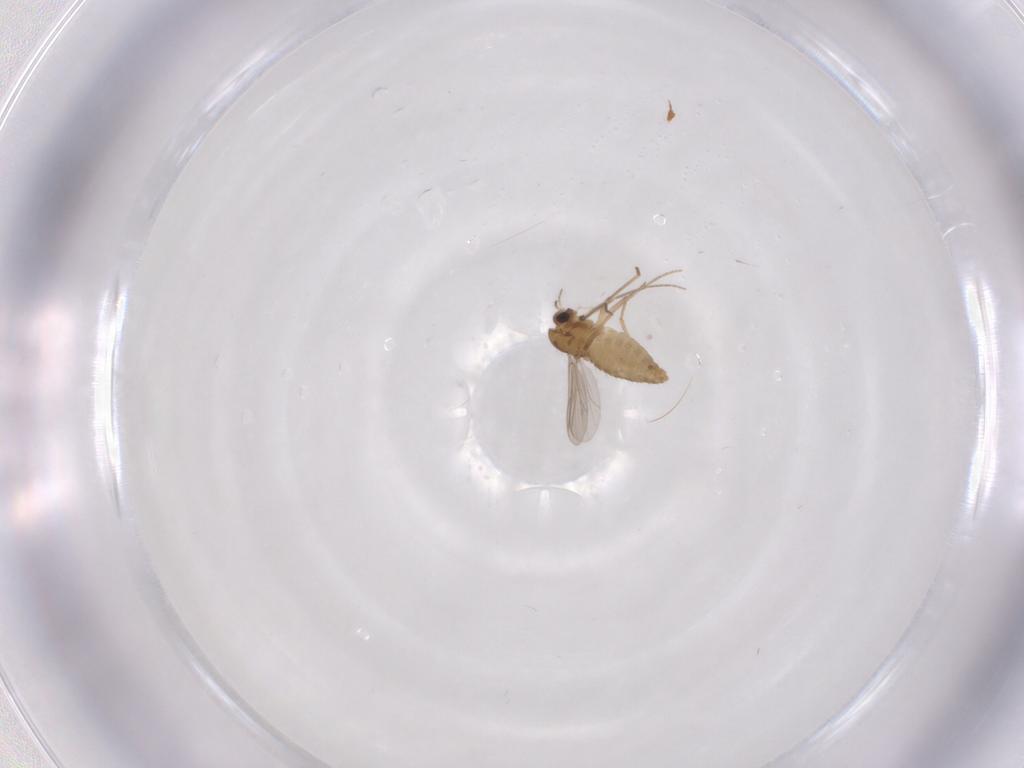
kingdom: Animalia
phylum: Arthropoda
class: Insecta
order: Diptera
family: Chironomidae
